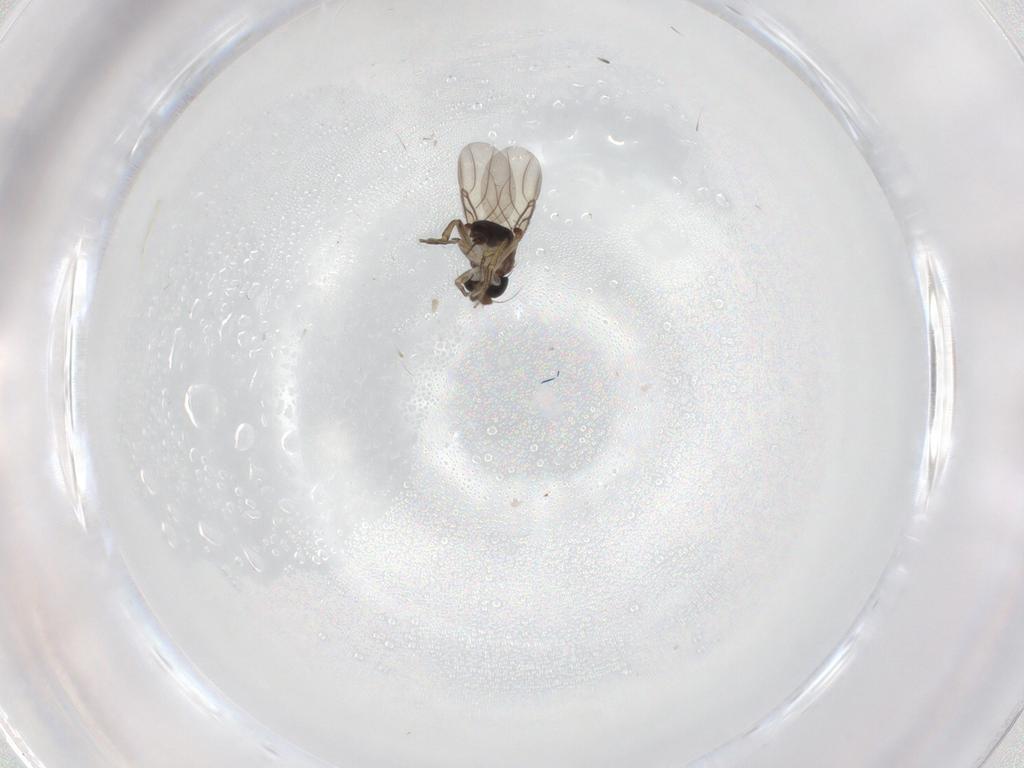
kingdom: Animalia
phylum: Arthropoda
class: Insecta
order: Diptera
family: Phoridae
